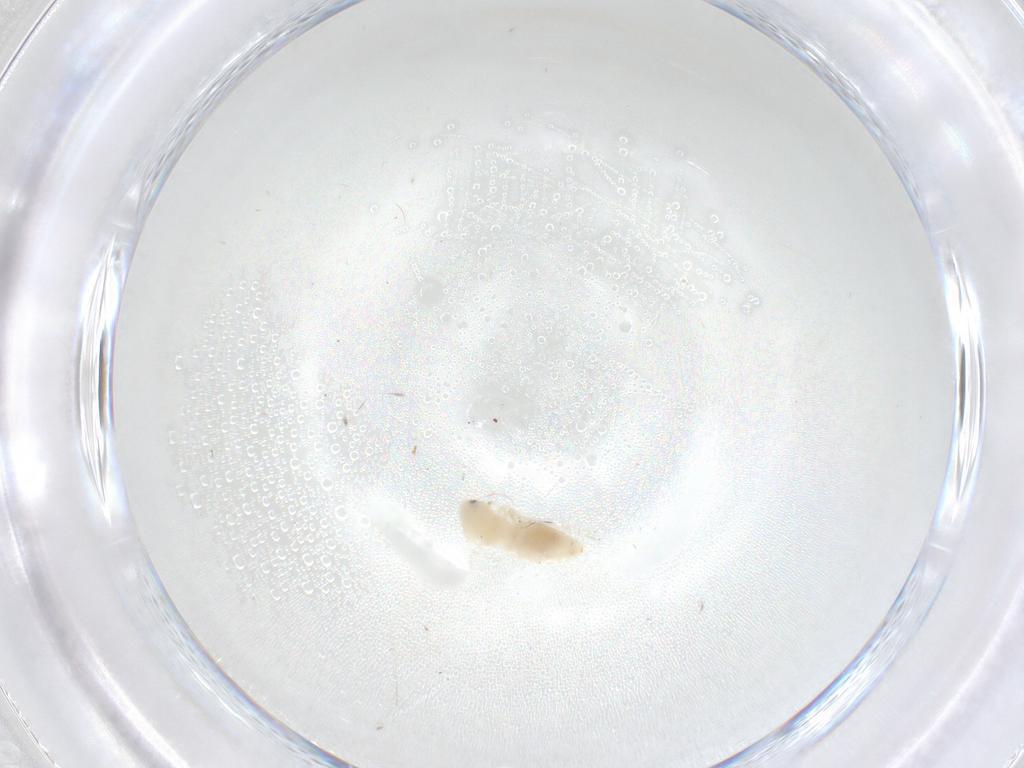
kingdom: Animalia
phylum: Arthropoda
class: Insecta
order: Hemiptera
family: Aleyrodidae
